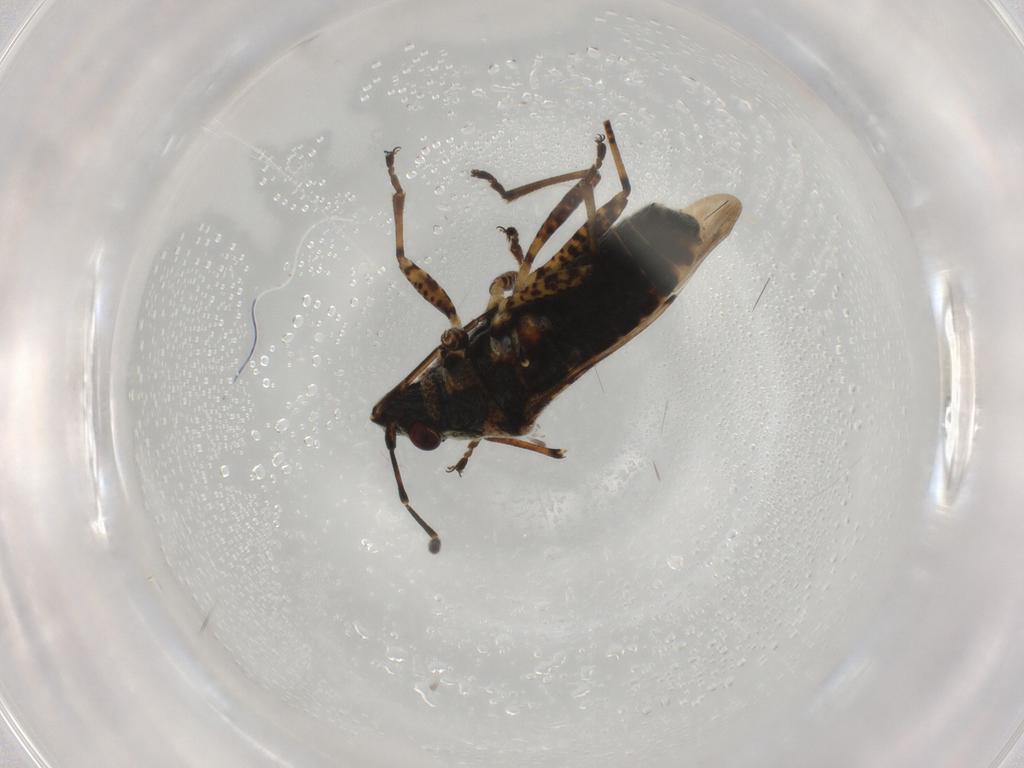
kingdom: Animalia
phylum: Arthropoda
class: Insecta
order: Hemiptera
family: Lygaeidae
